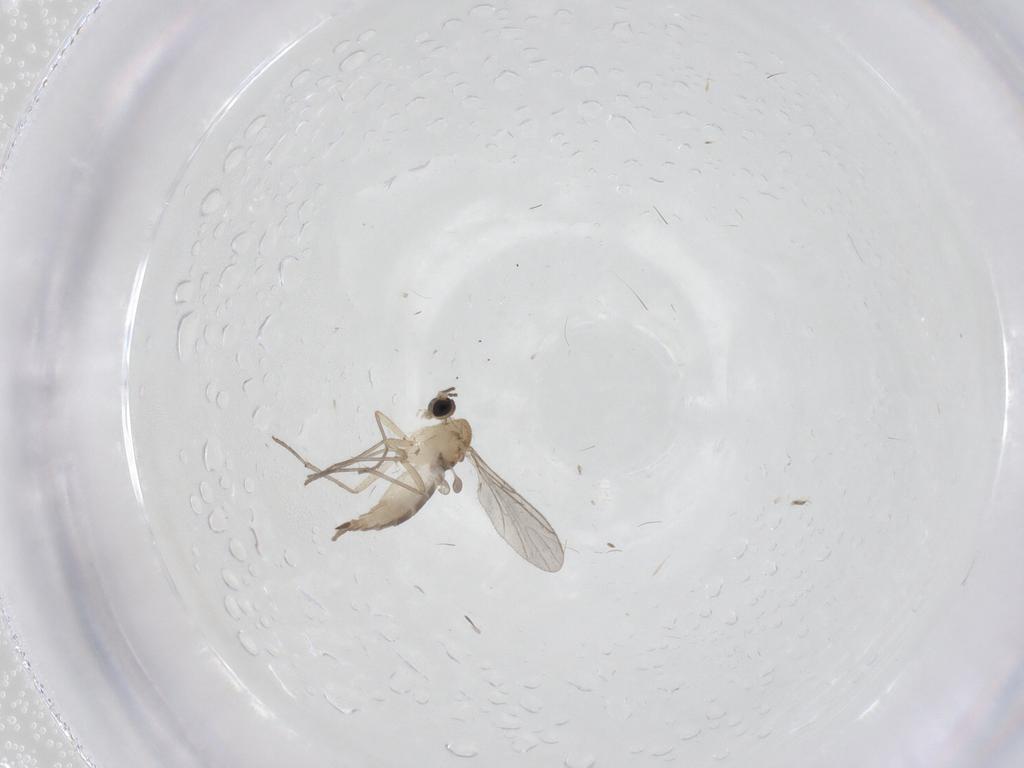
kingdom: Animalia
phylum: Arthropoda
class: Insecta
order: Diptera
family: Sciaridae
